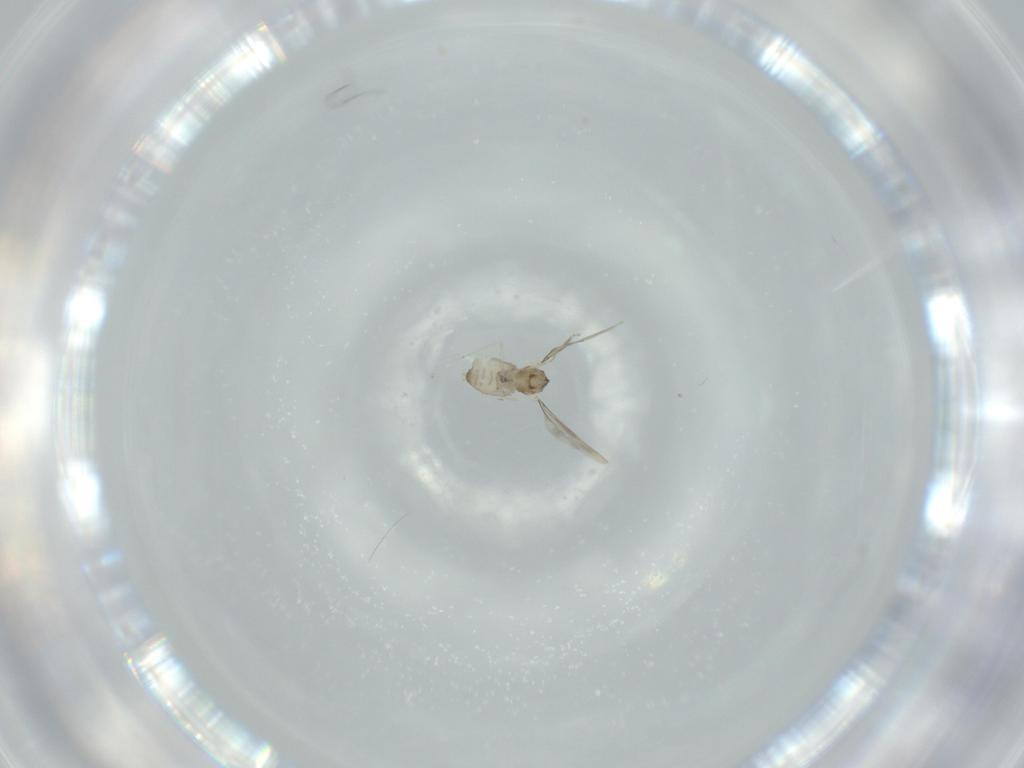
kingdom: Animalia
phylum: Arthropoda
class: Insecta
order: Diptera
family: Cecidomyiidae
